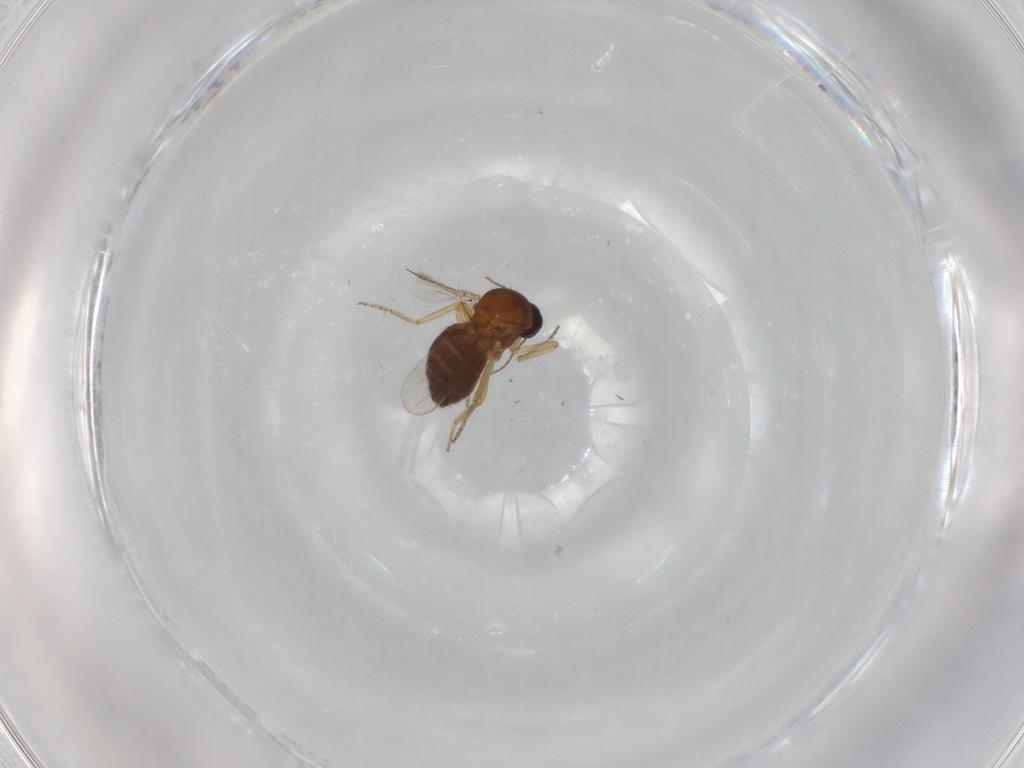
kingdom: Animalia
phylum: Arthropoda
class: Insecta
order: Diptera
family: Ceratopogonidae
